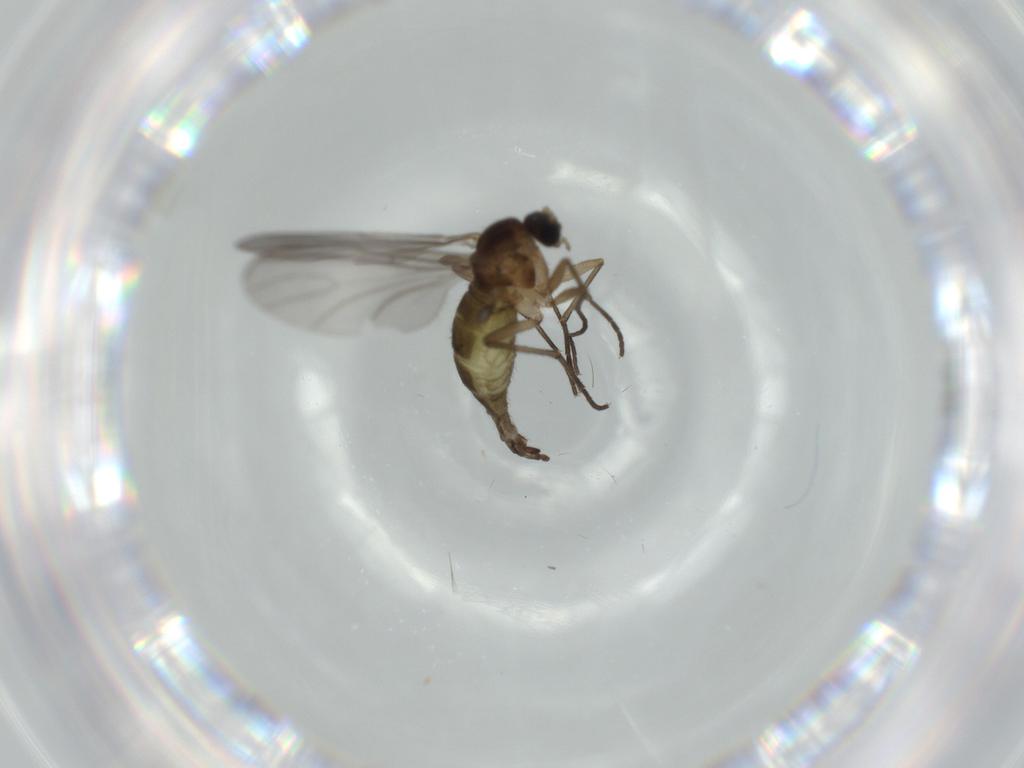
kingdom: Animalia
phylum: Arthropoda
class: Insecta
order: Diptera
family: Sciaridae
